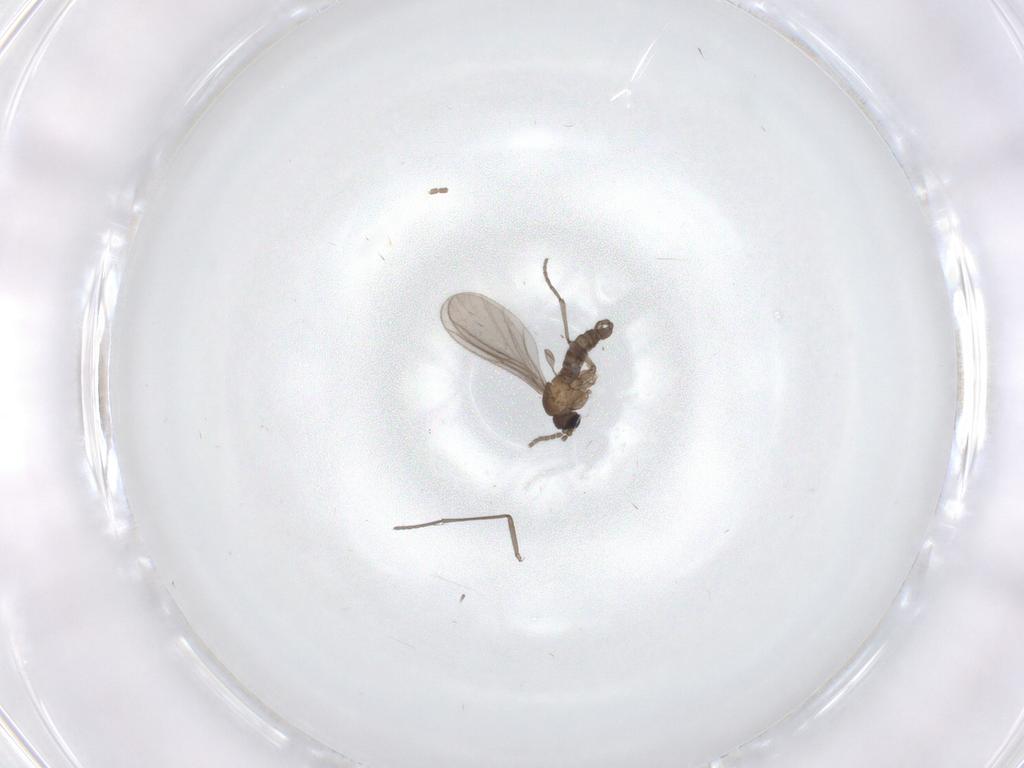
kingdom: Animalia
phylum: Arthropoda
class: Insecta
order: Diptera
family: Sciaridae
